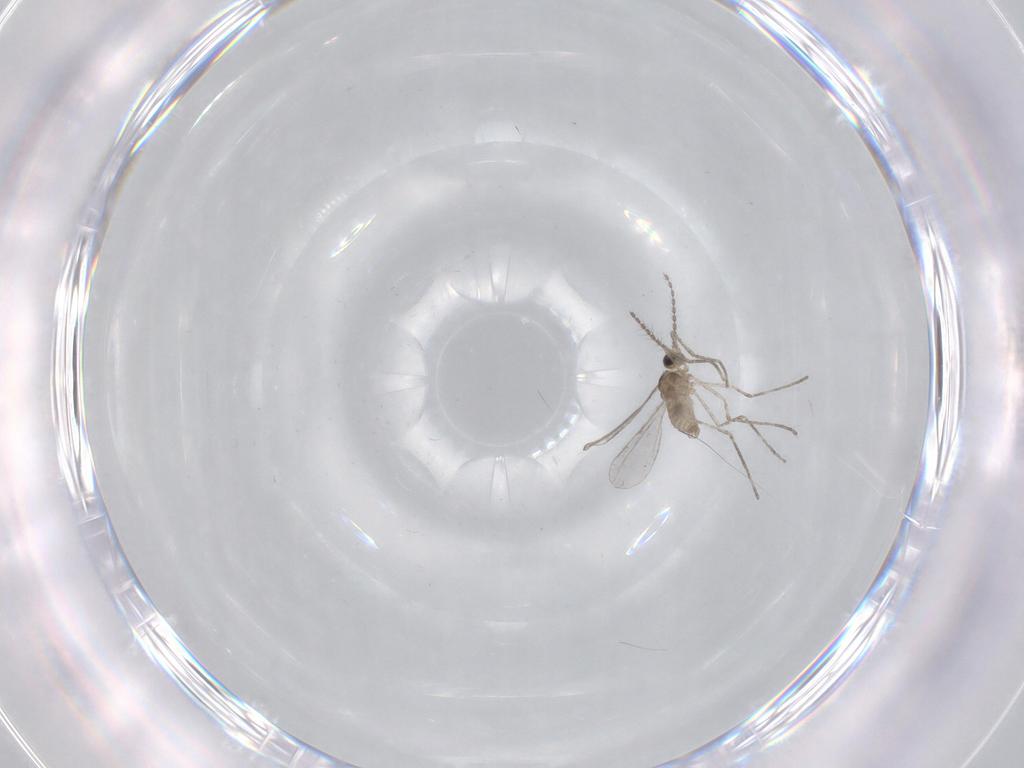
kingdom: Animalia
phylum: Arthropoda
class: Insecta
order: Diptera
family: Cecidomyiidae
